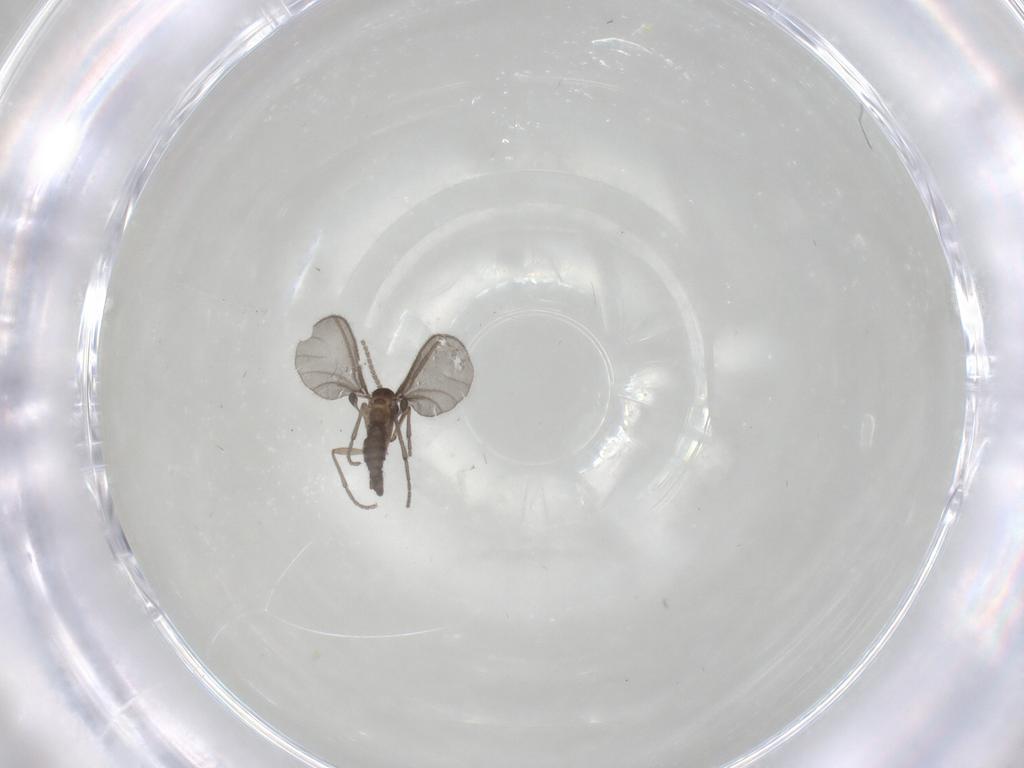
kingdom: Animalia
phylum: Arthropoda
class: Insecta
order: Diptera
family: Sciaridae
